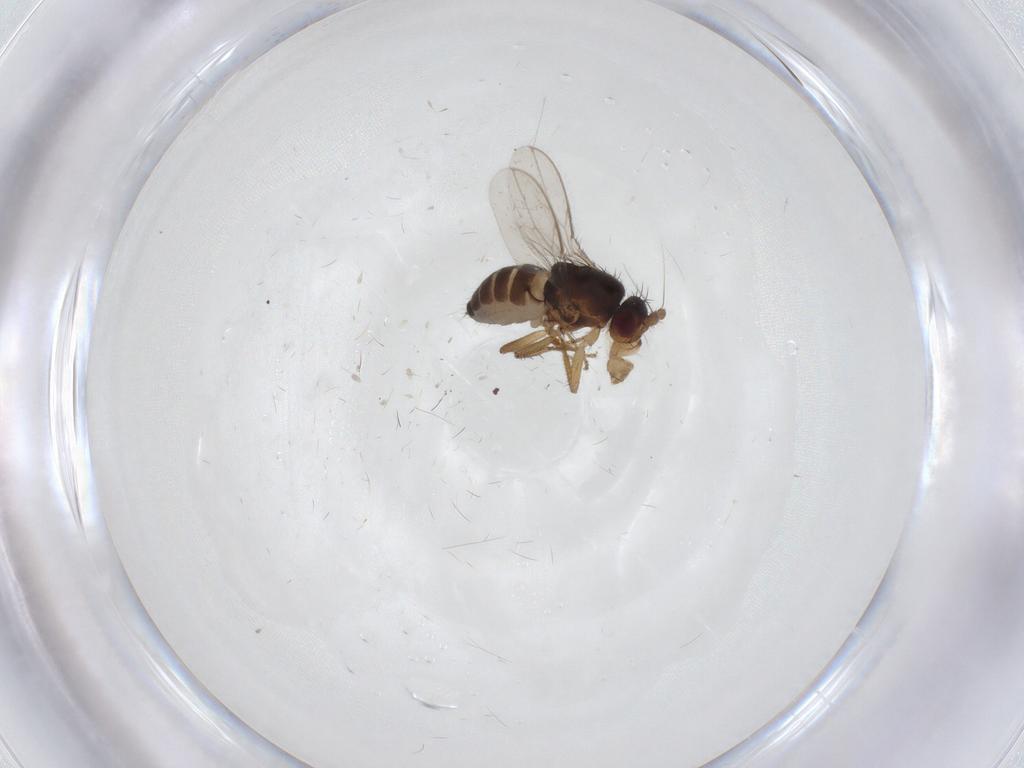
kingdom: Animalia
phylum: Arthropoda
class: Insecta
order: Diptera
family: Sphaeroceridae
